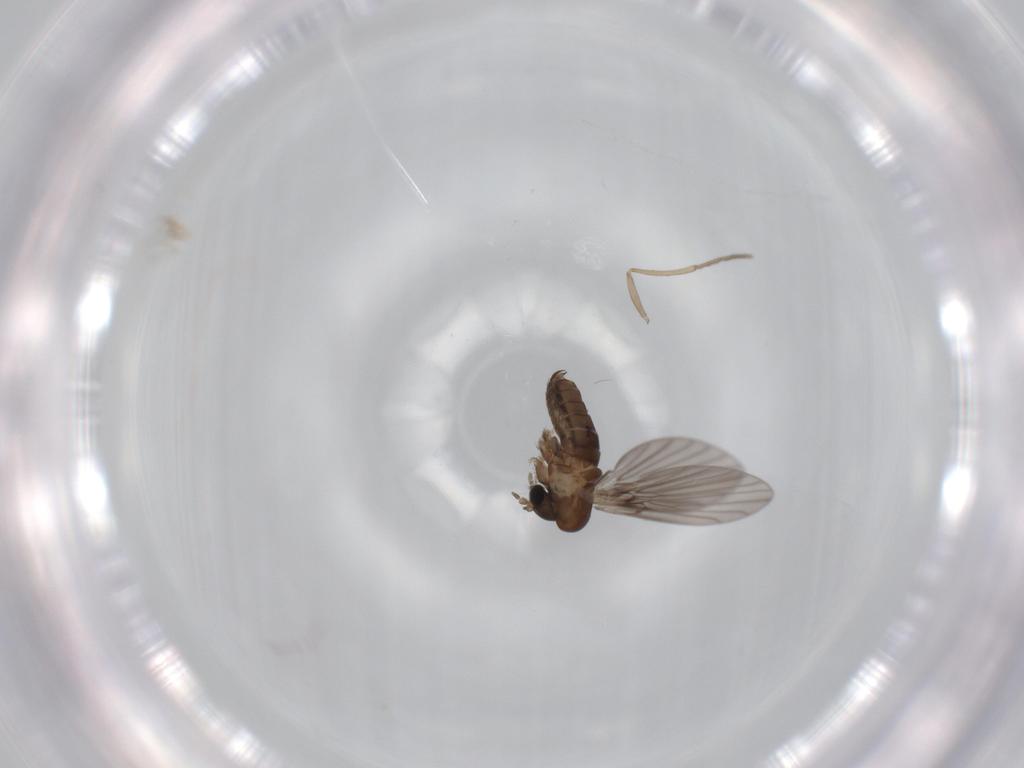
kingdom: Animalia
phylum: Arthropoda
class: Insecta
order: Diptera
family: Psychodidae
